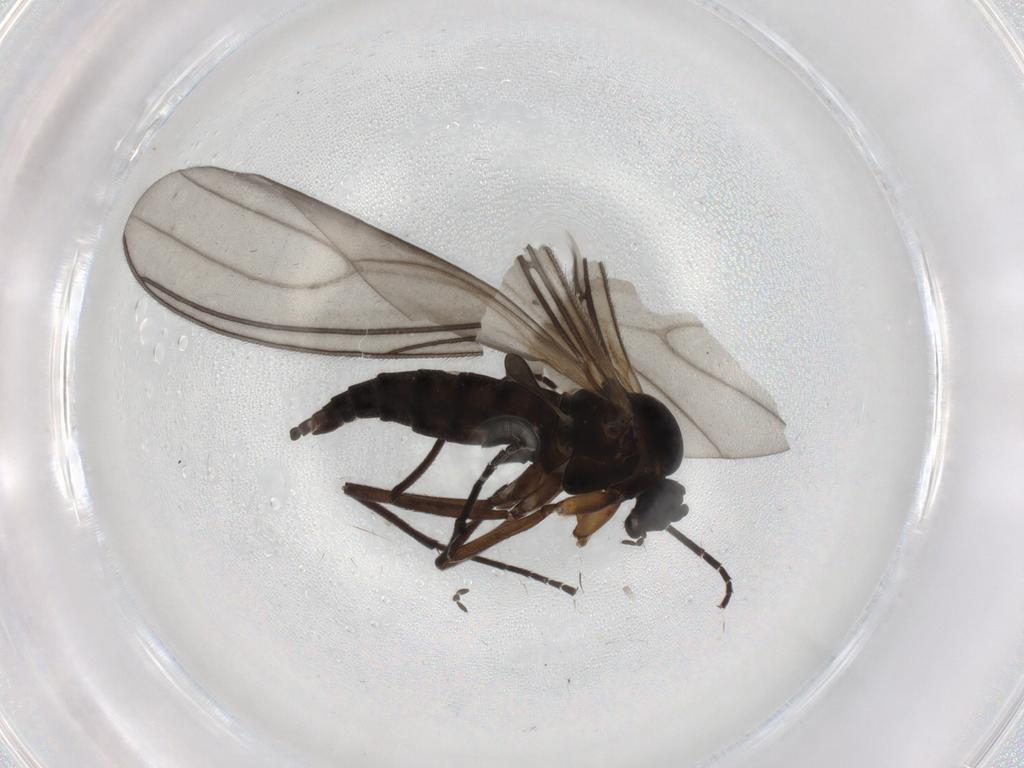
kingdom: Animalia
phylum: Arthropoda
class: Insecta
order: Diptera
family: Sciaridae
